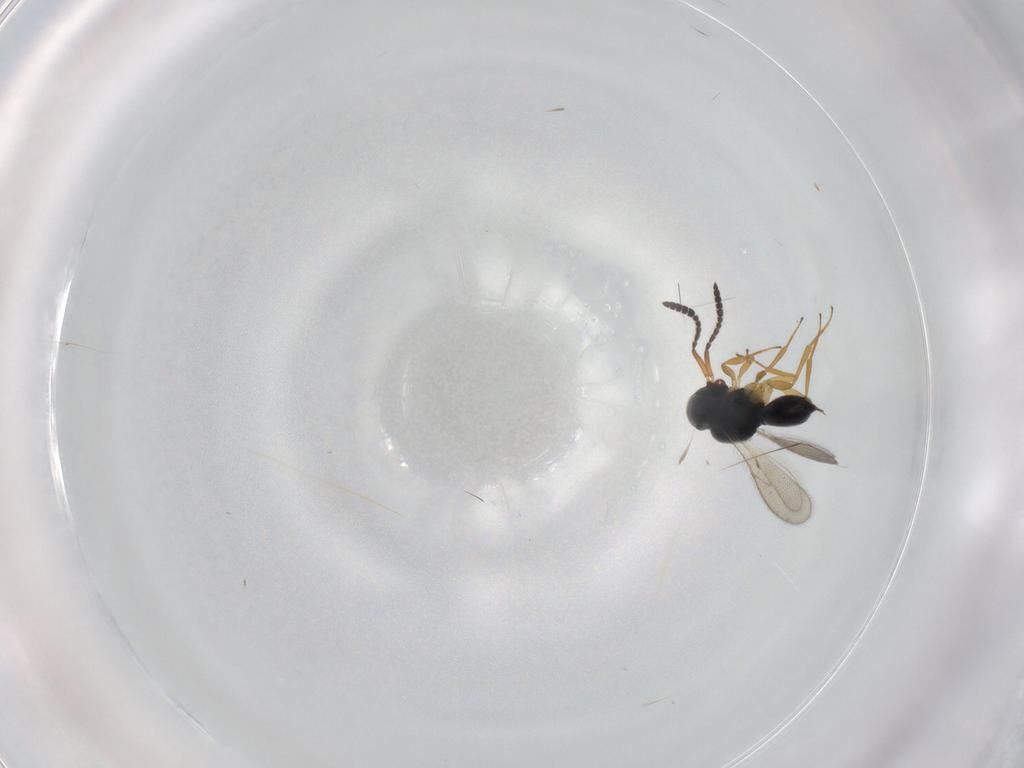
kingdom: Animalia
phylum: Arthropoda
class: Insecta
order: Hymenoptera
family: Scelionidae
